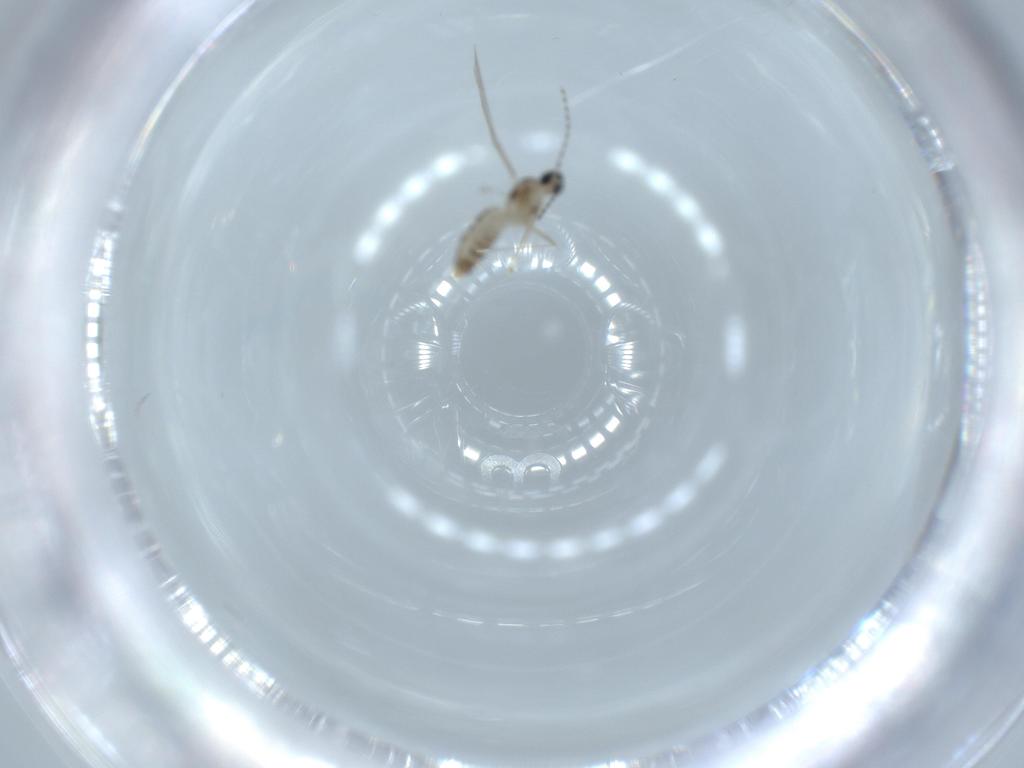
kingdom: Animalia
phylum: Arthropoda
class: Insecta
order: Diptera
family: Cecidomyiidae
